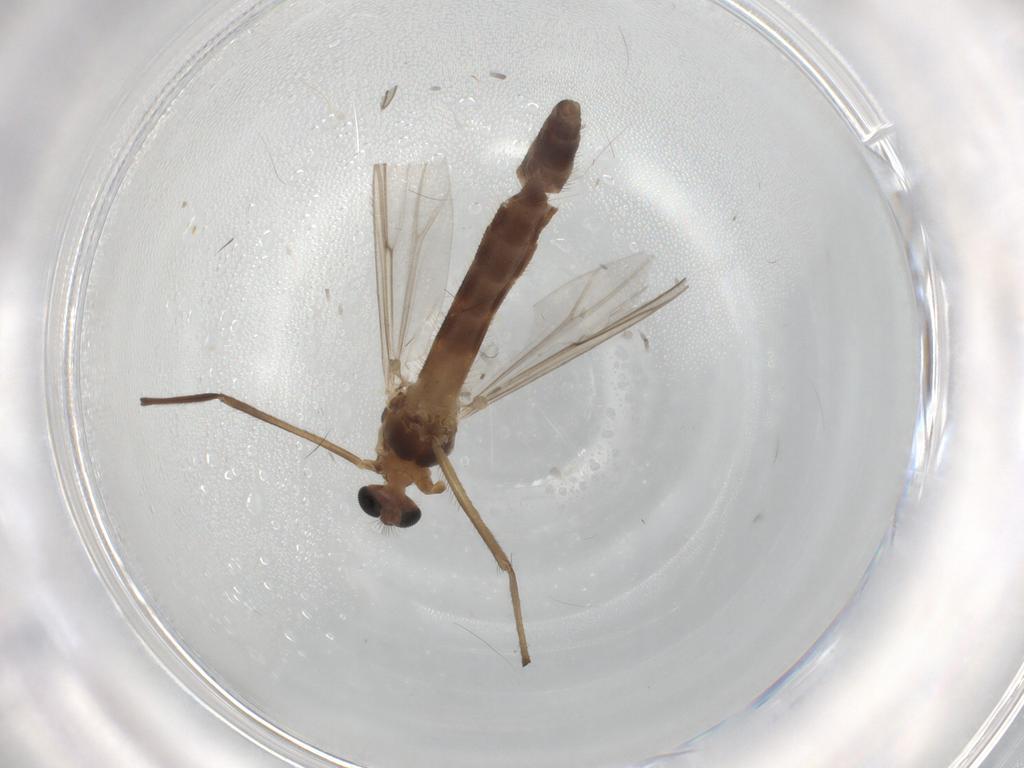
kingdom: Animalia
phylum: Arthropoda
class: Insecta
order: Diptera
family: Chironomidae
